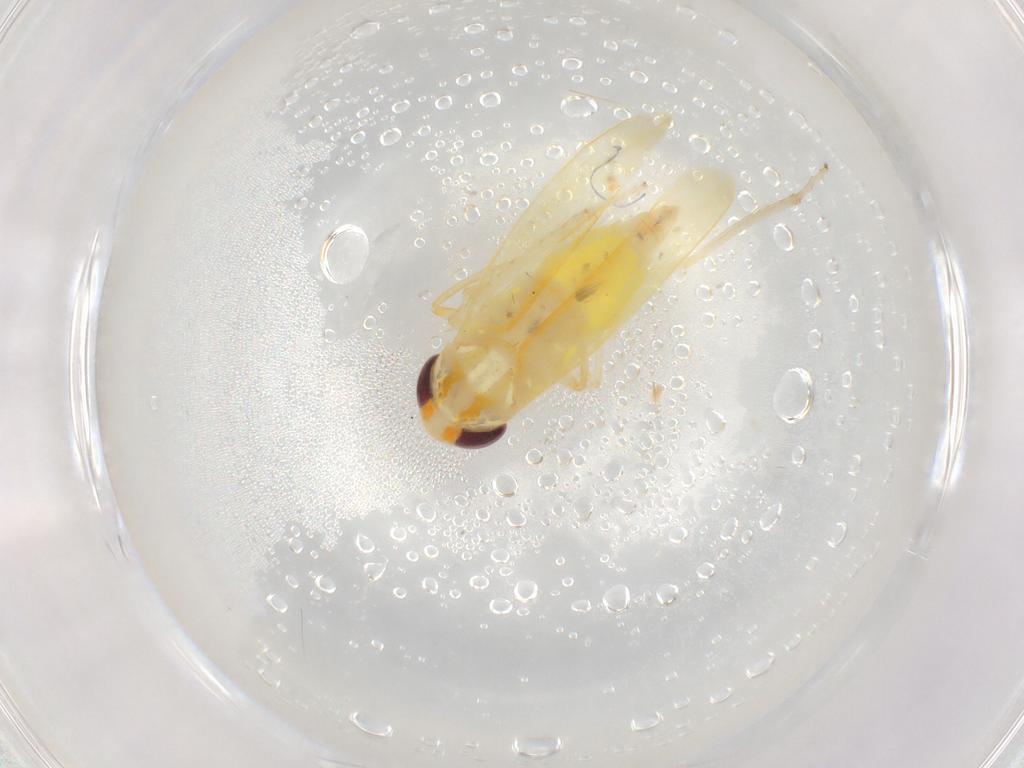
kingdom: Animalia
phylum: Arthropoda
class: Insecta
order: Hemiptera
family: Cicadellidae
